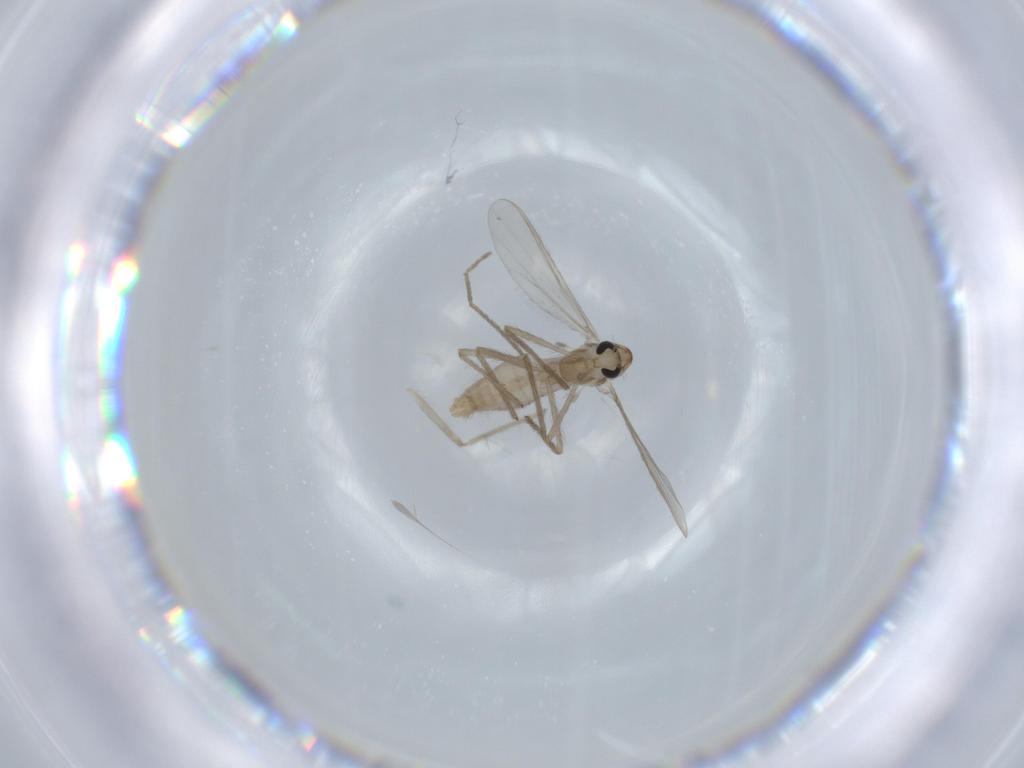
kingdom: Animalia
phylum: Arthropoda
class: Insecta
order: Diptera
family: Chironomidae
